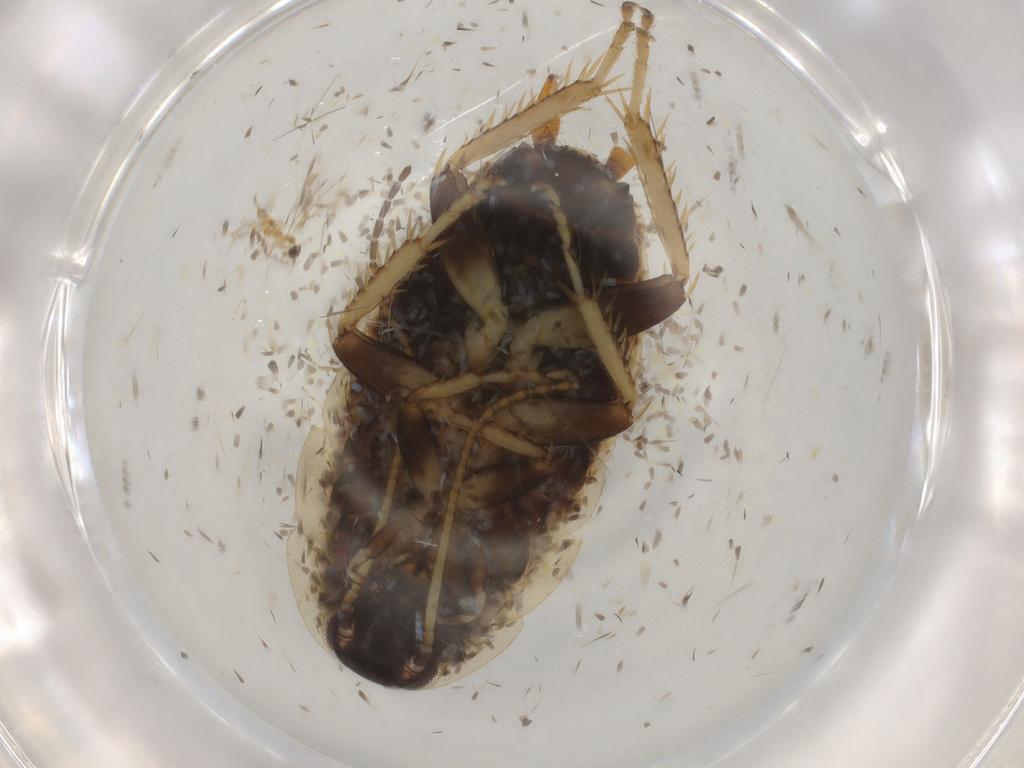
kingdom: Animalia
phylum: Arthropoda
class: Insecta
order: Blattodea
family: Ectobiidae
